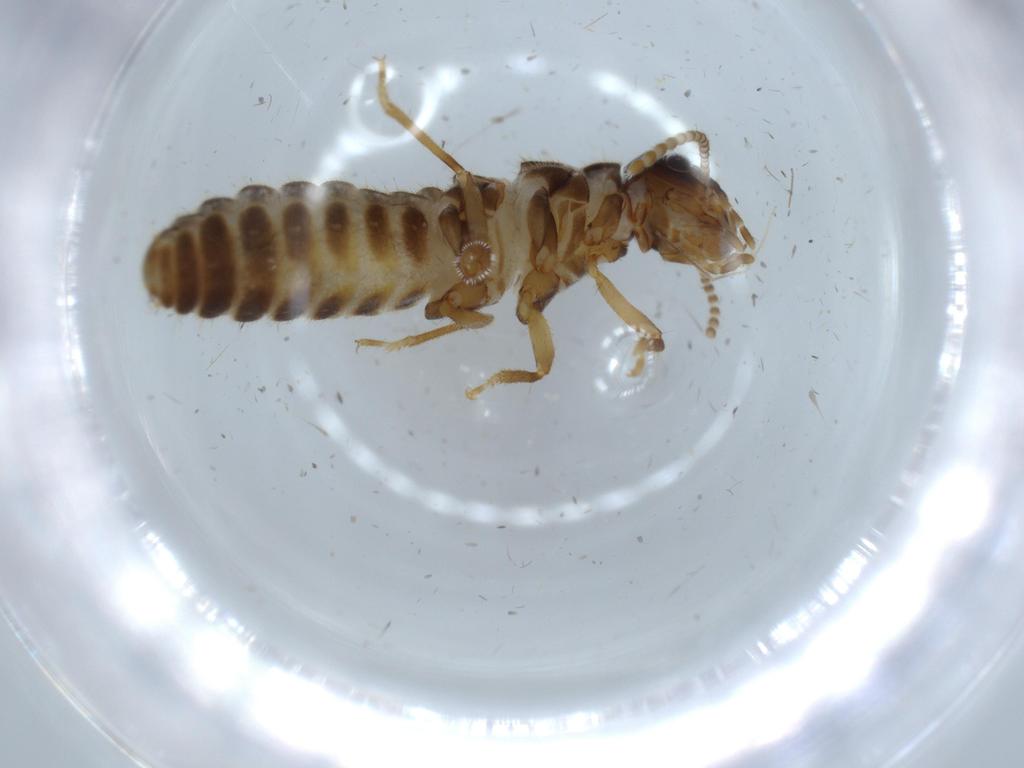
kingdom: Animalia
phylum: Arthropoda
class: Insecta
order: Blattodea
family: Termitidae
